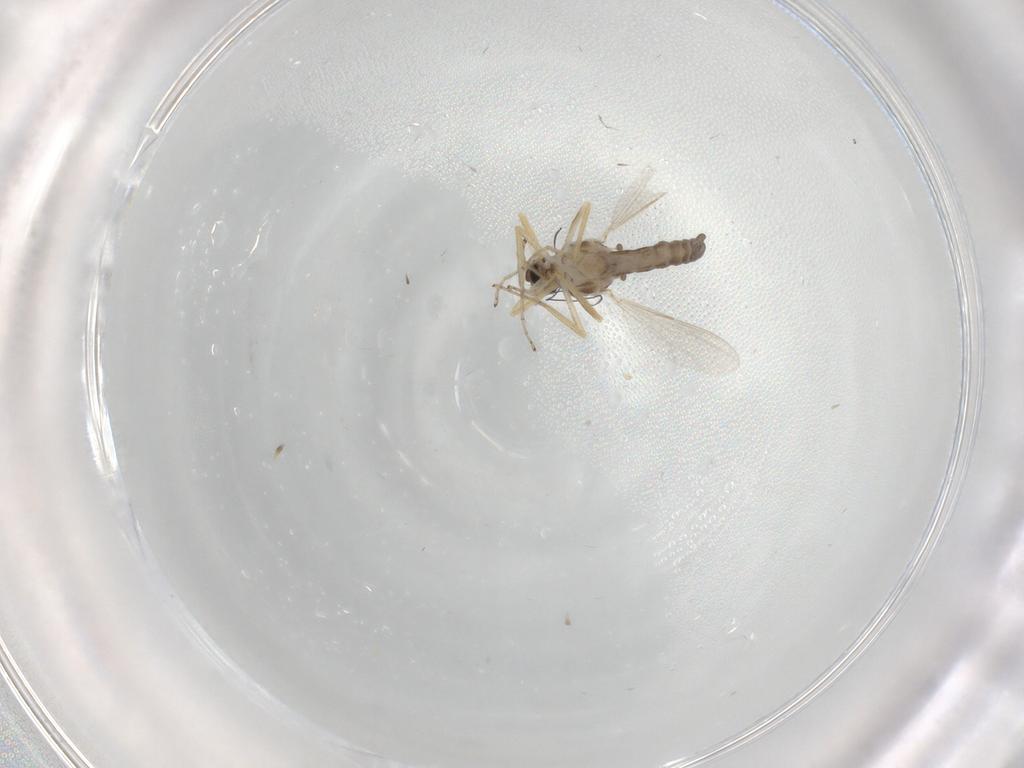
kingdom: Animalia
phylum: Arthropoda
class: Insecta
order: Diptera
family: Ceratopogonidae
